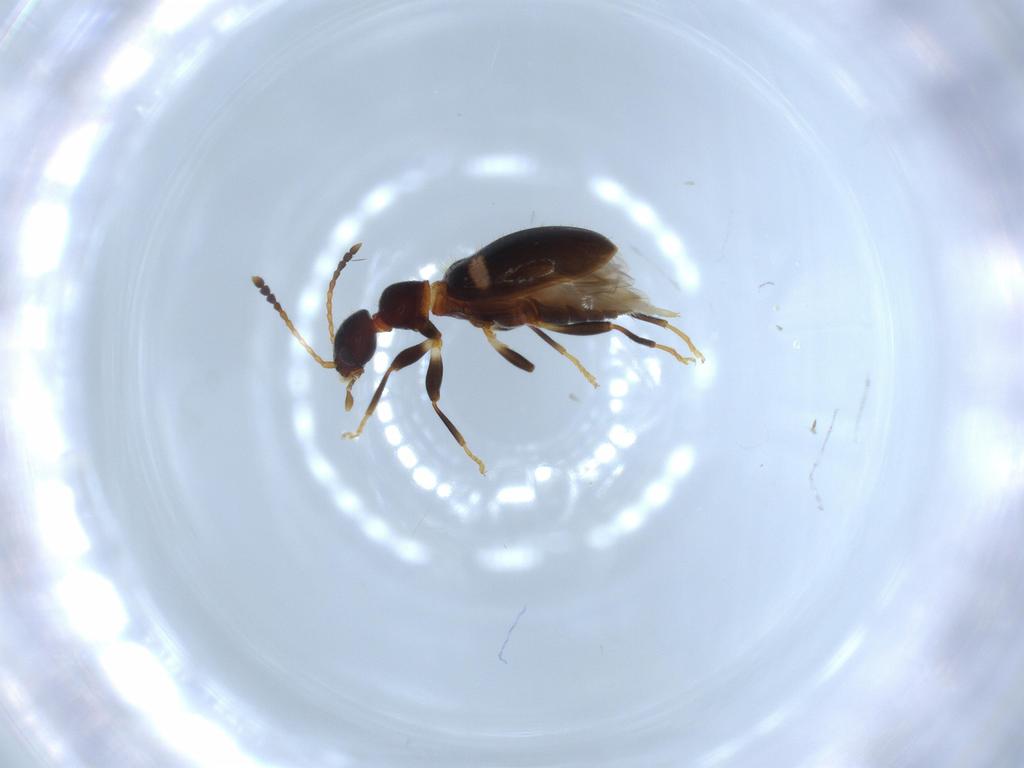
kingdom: Animalia
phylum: Arthropoda
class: Insecta
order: Coleoptera
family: Anthicidae
